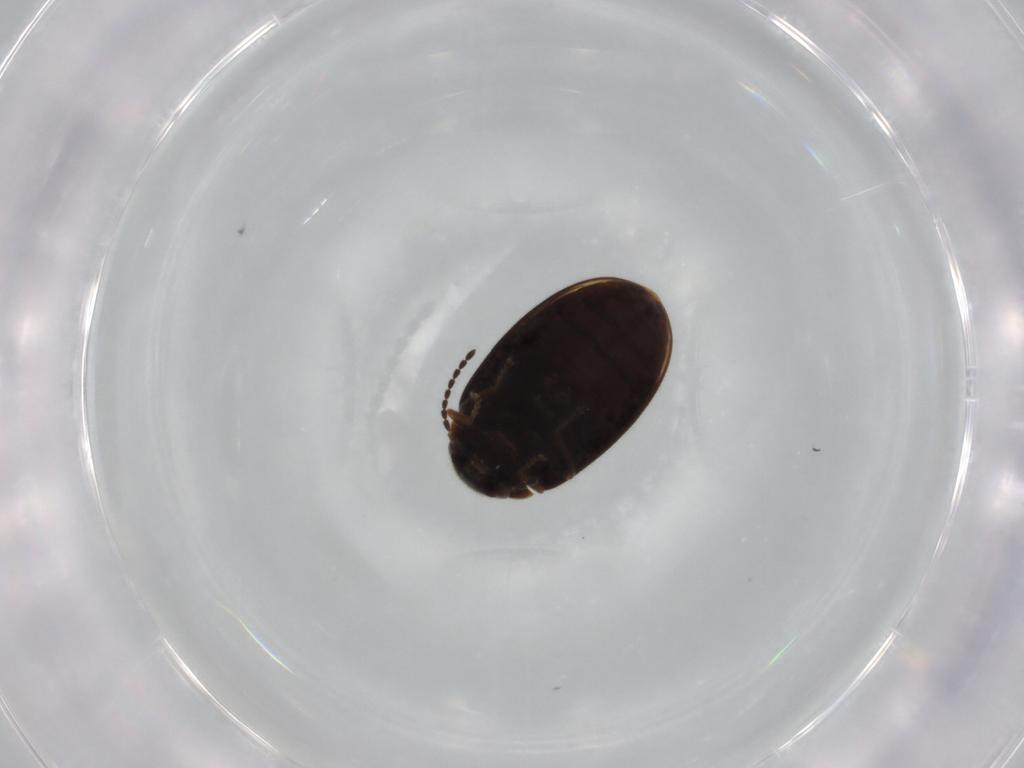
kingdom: Animalia
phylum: Arthropoda
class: Insecta
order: Coleoptera
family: Scirtidae
